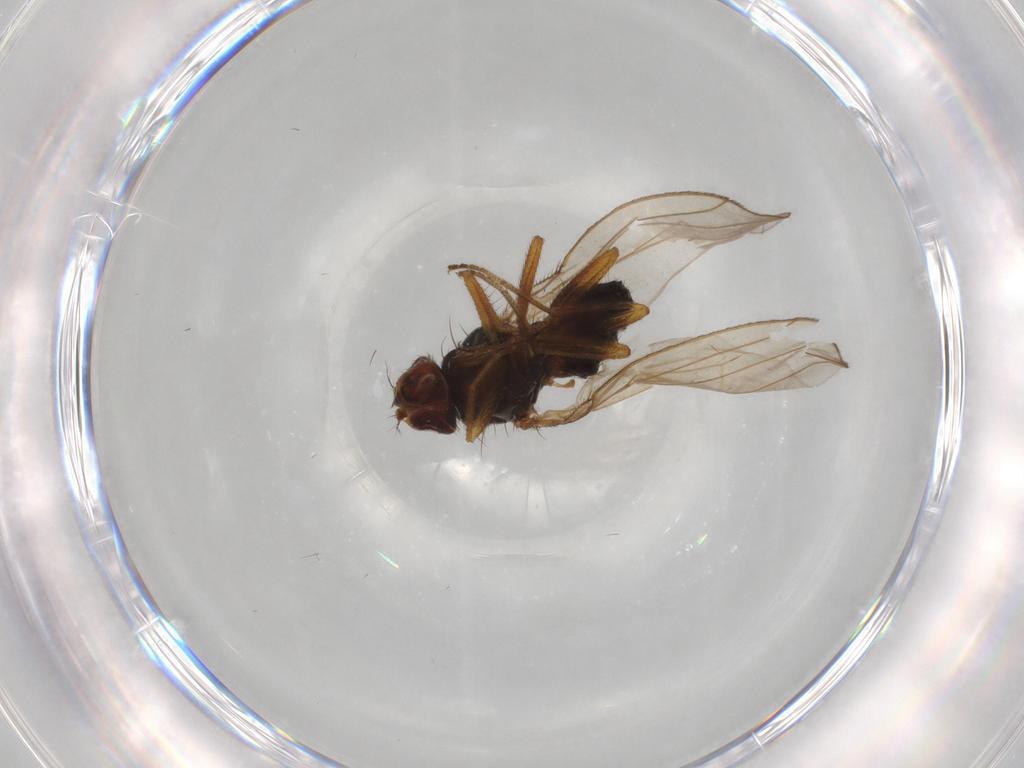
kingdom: Animalia
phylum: Arthropoda
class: Insecta
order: Diptera
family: Drosophilidae
